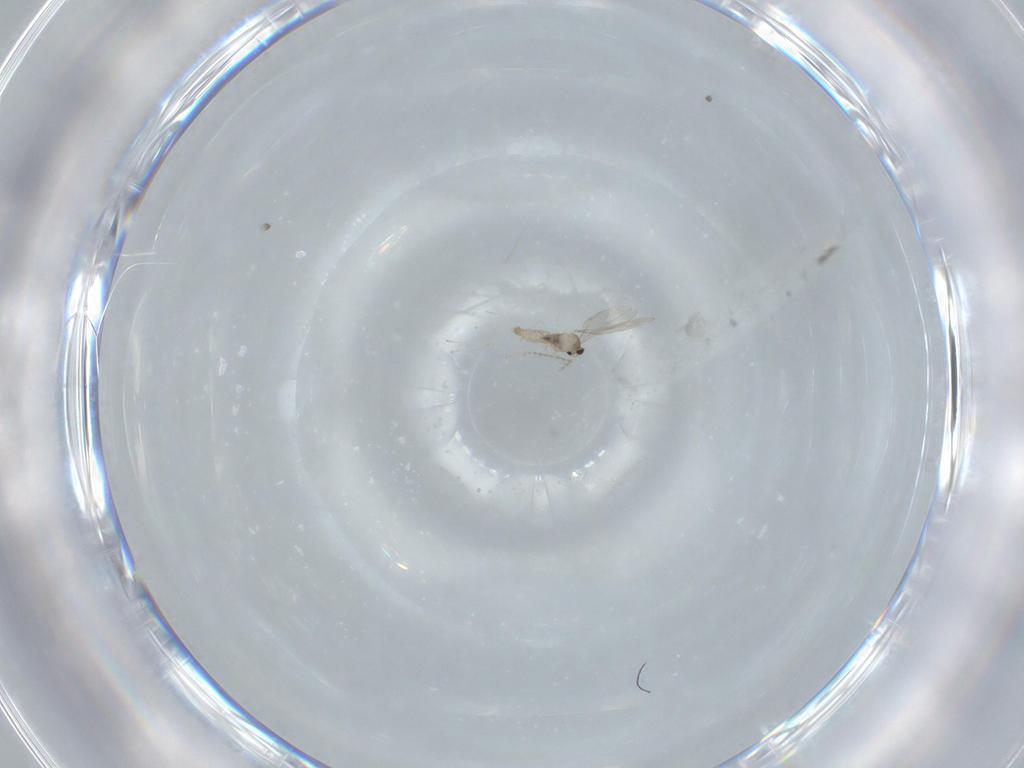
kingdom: Animalia
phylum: Arthropoda
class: Insecta
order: Diptera
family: Cecidomyiidae
